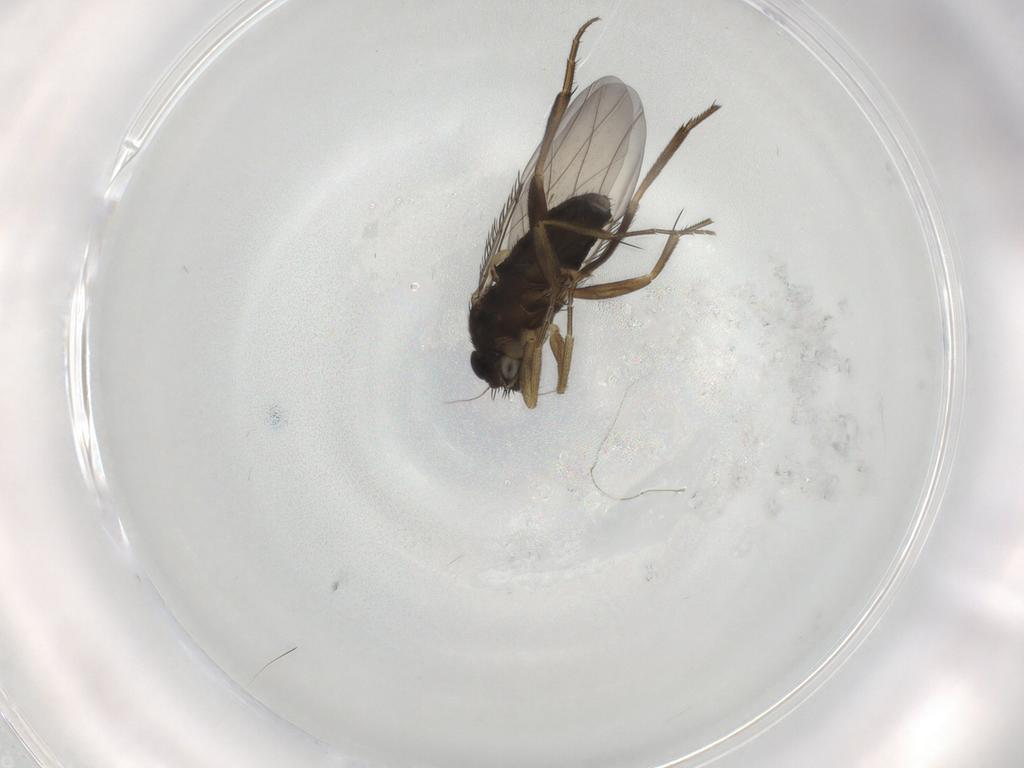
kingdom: Animalia
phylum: Arthropoda
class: Insecta
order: Diptera
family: Phoridae
